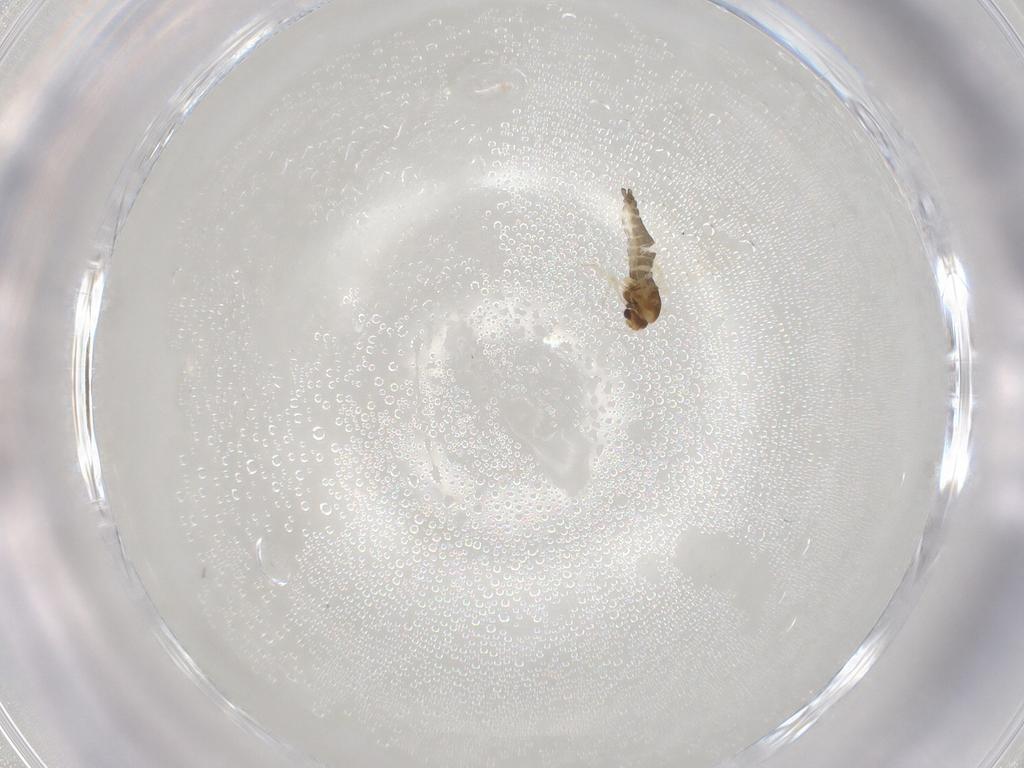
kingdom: Animalia
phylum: Arthropoda
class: Insecta
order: Diptera
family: Chironomidae
